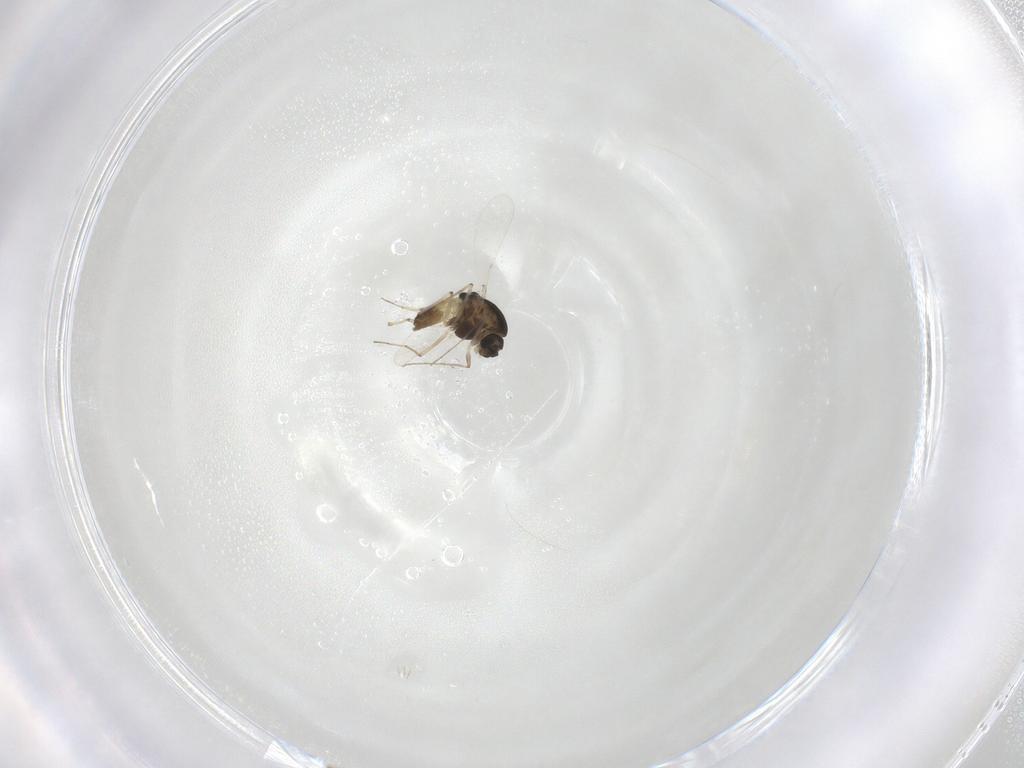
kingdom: Animalia
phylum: Arthropoda
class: Insecta
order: Diptera
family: Chironomidae
